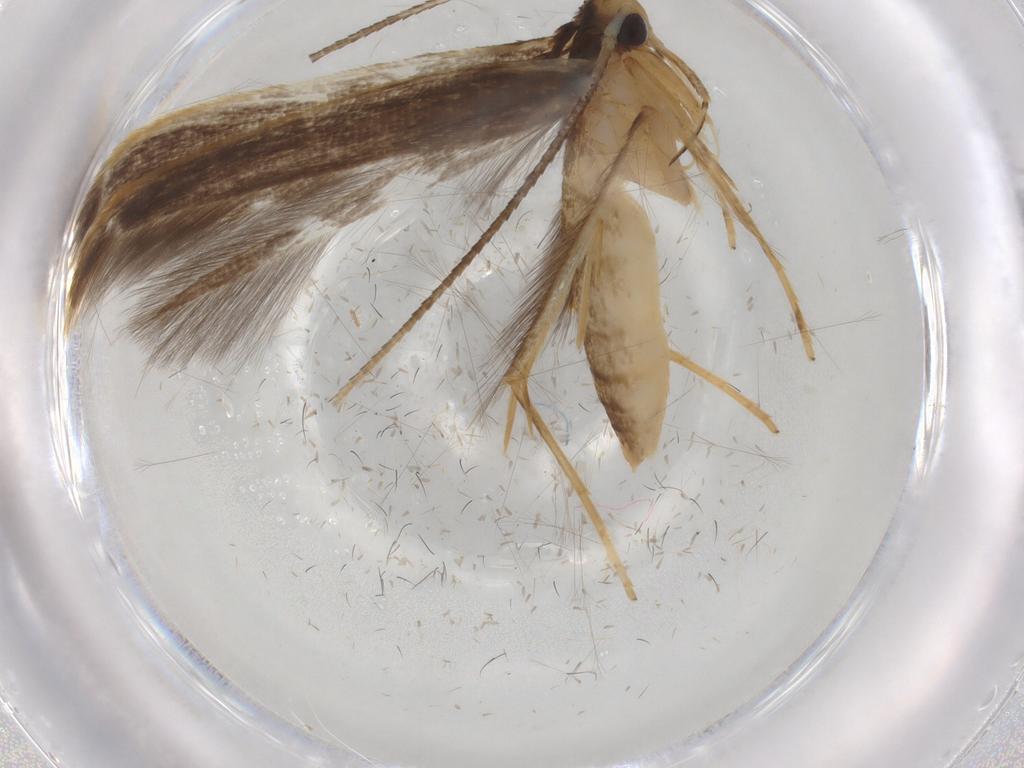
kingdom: Animalia
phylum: Arthropoda
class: Insecta
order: Lepidoptera
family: Pterolonchidae
